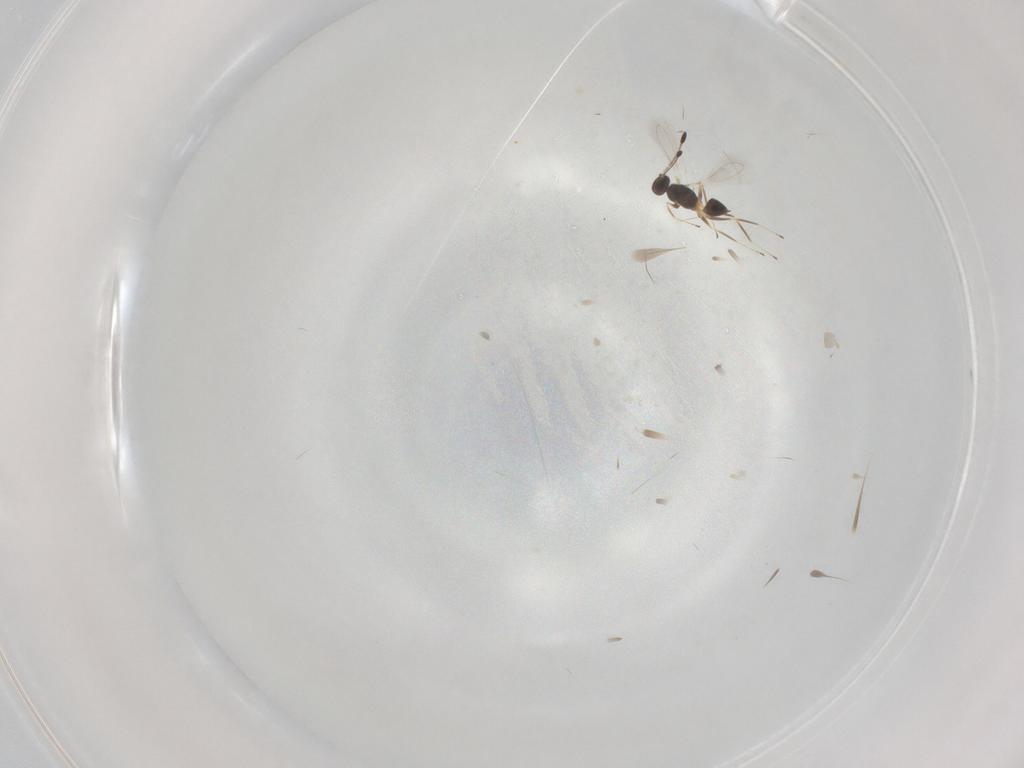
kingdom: Animalia
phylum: Arthropoda
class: Insecta
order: Hymenoptera
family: Mymaridae
